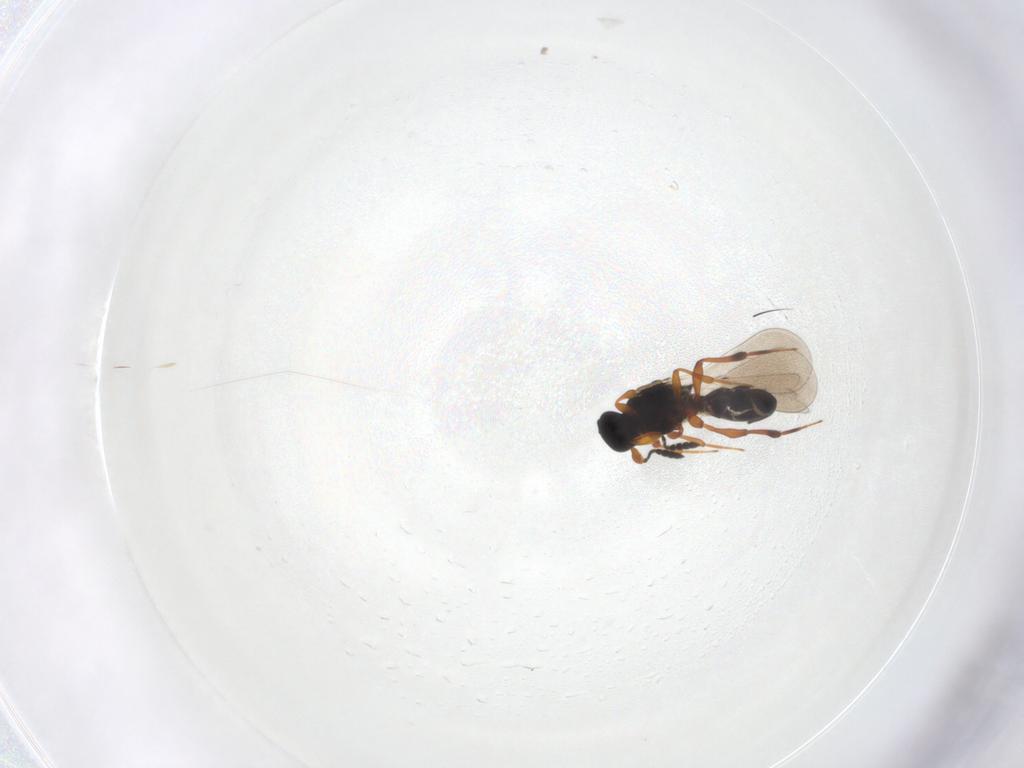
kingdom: Animalia
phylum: Arthropoda
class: Insecta
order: Hymenoptera
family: Platygastridae
